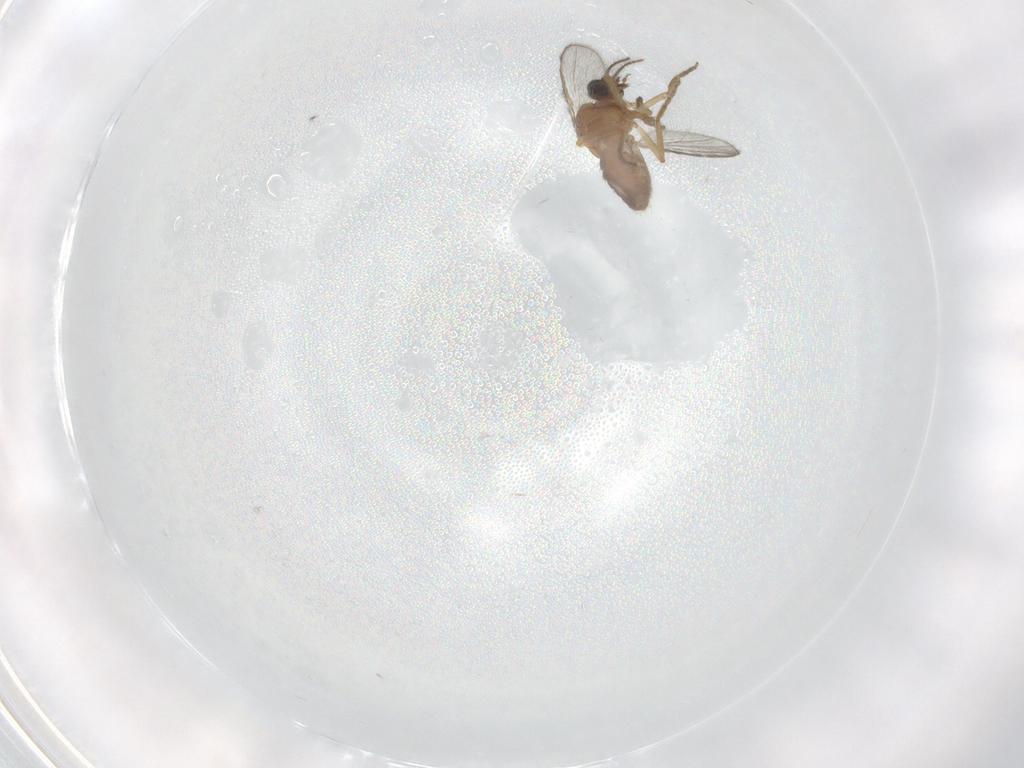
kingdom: Animalia
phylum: Arthropoda
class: Insecta
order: Diptera
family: Ceratopogonidae
